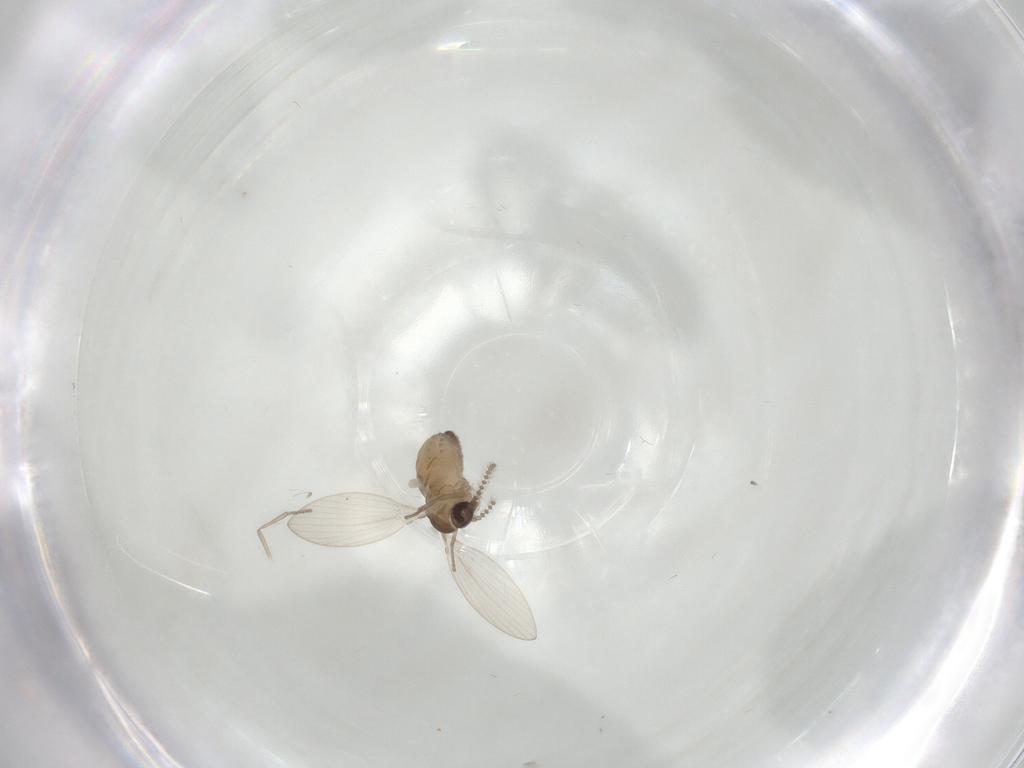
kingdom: Animalia
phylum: Arthropoda
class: Insecta
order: Diptera
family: Psychodidae
